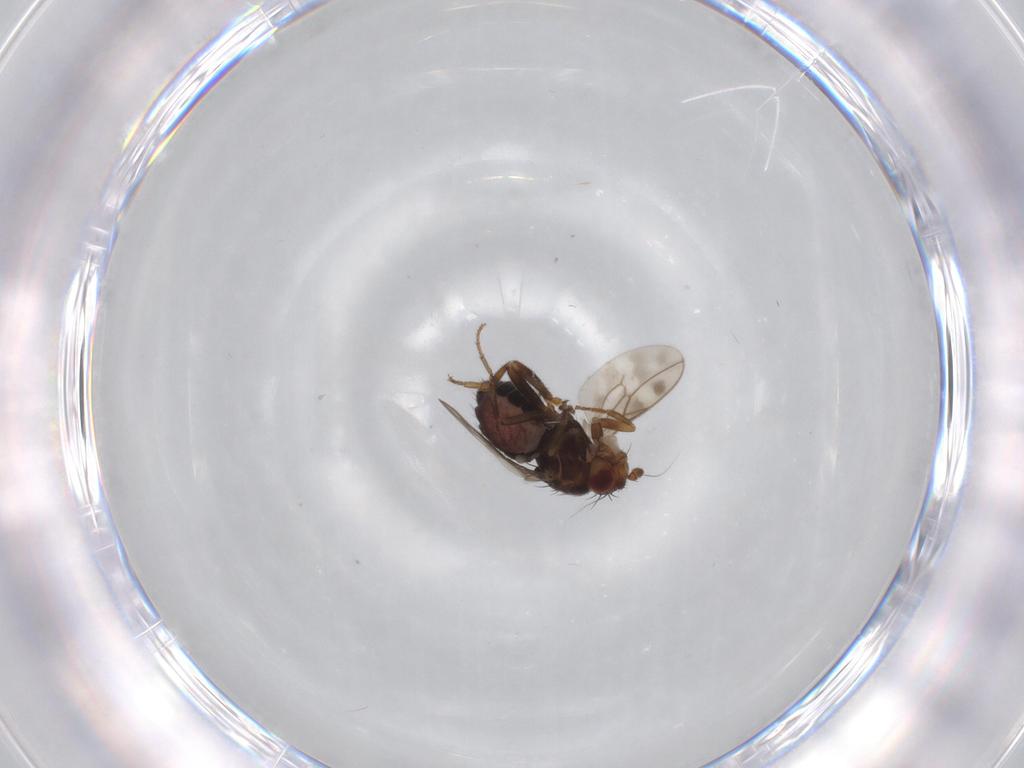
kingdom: Animalia
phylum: Arthropoda
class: Insecta
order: Diptera
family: Sphaeroceridae
